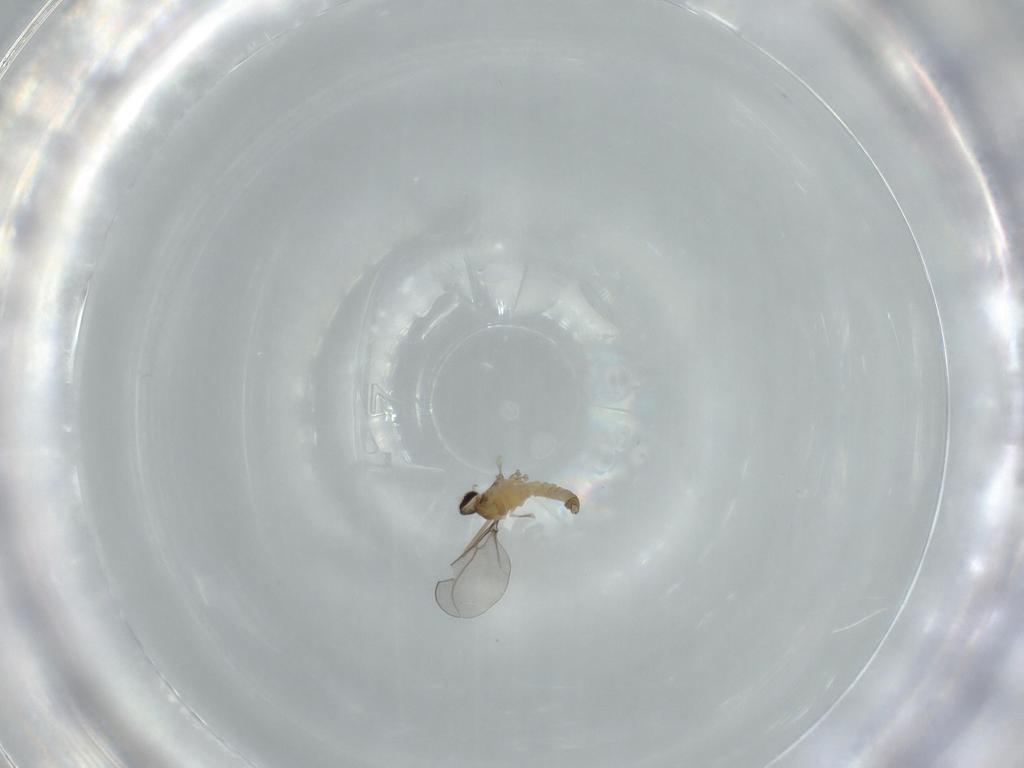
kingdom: Animalia
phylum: Arthropoda
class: Insecta
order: Diptera
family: Cecidomyiidae
